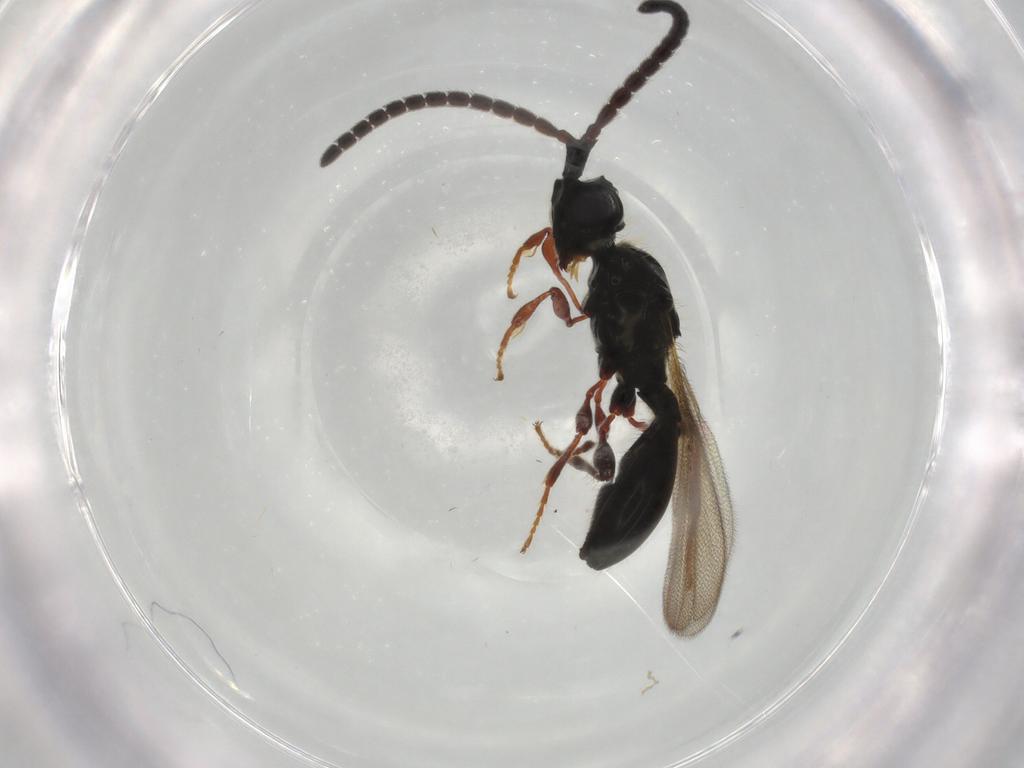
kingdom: Animalia
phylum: Arthropoda
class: Insecta
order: Hymenoptera
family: Diapriidae
